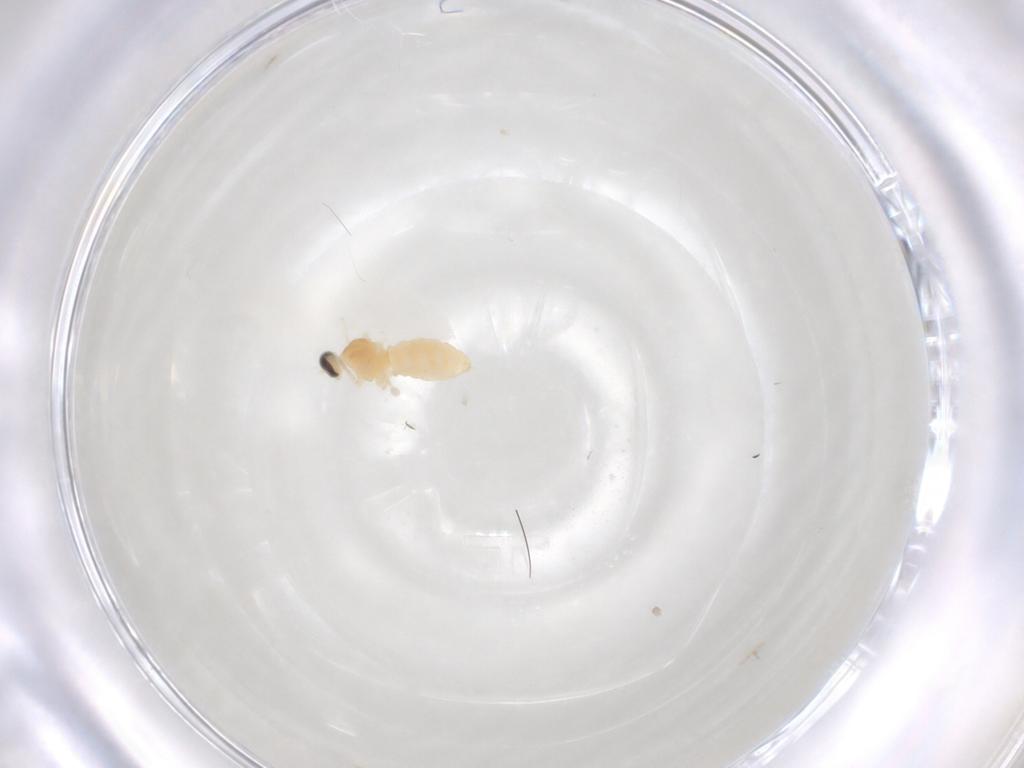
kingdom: Animalia
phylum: Arthropoda
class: Insecta
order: Diptera
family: Cecidomyiidae
